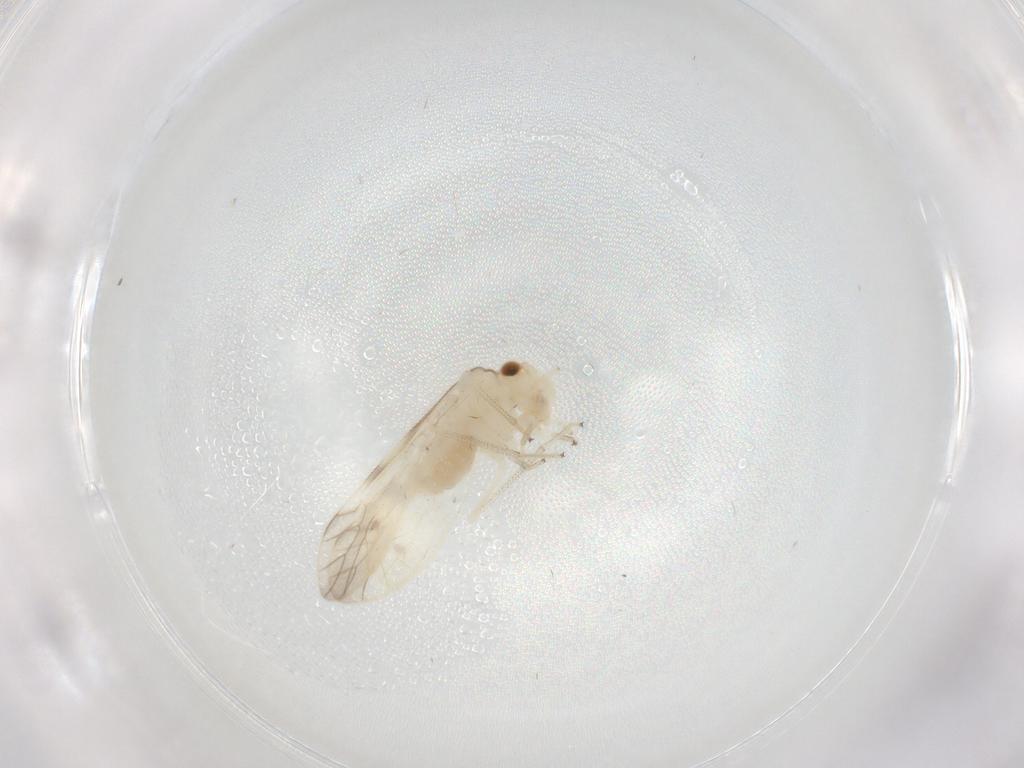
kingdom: Animalia
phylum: Arthropoda
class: Insecta
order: Psocodea
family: Caeciliusidae
